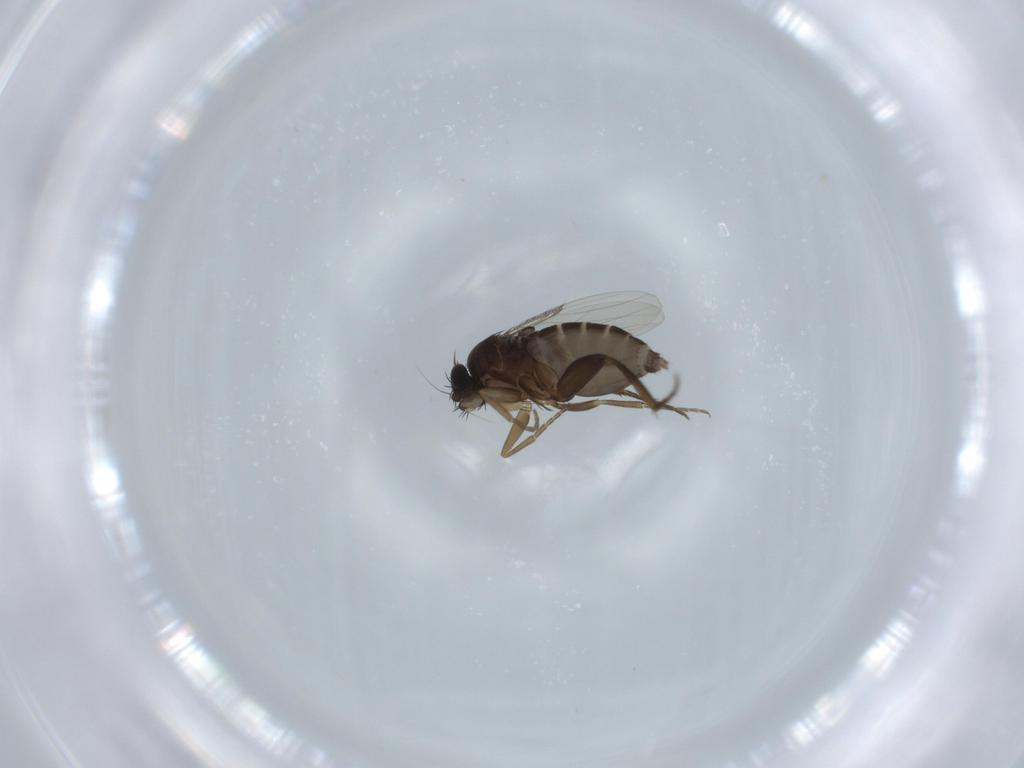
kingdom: Animalia
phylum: Arthropoda
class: Insecta
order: Diptera
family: Phoridae
